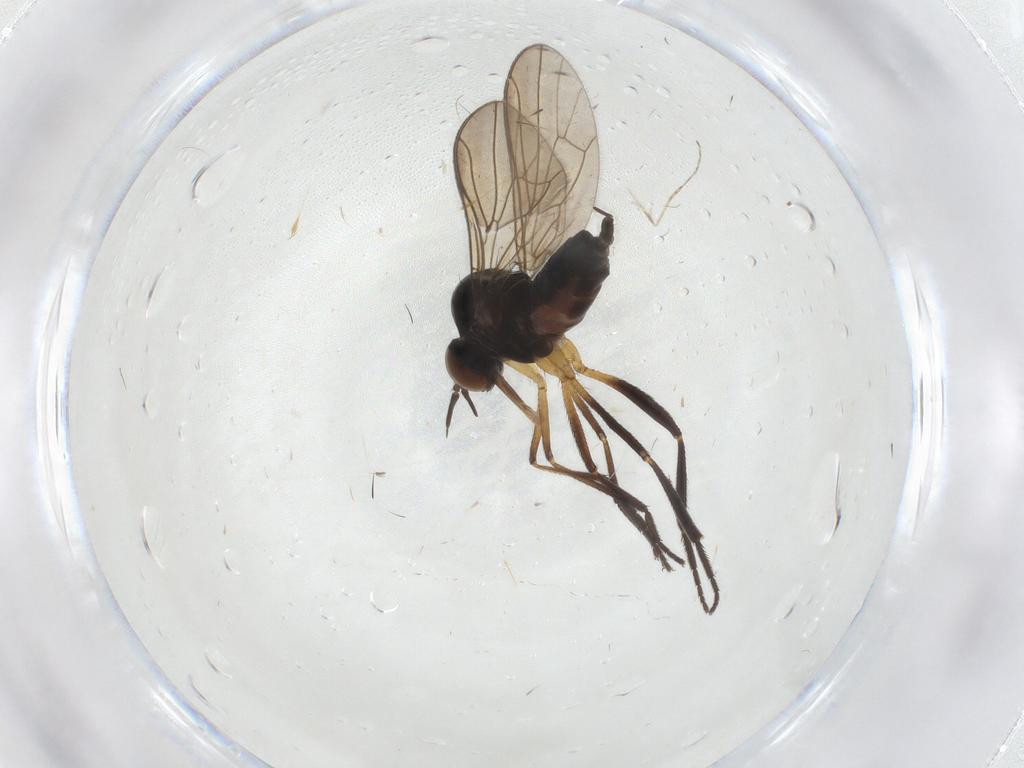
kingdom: Animalia
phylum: Arthropoda
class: Insecta
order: Diptera
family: Empididae
